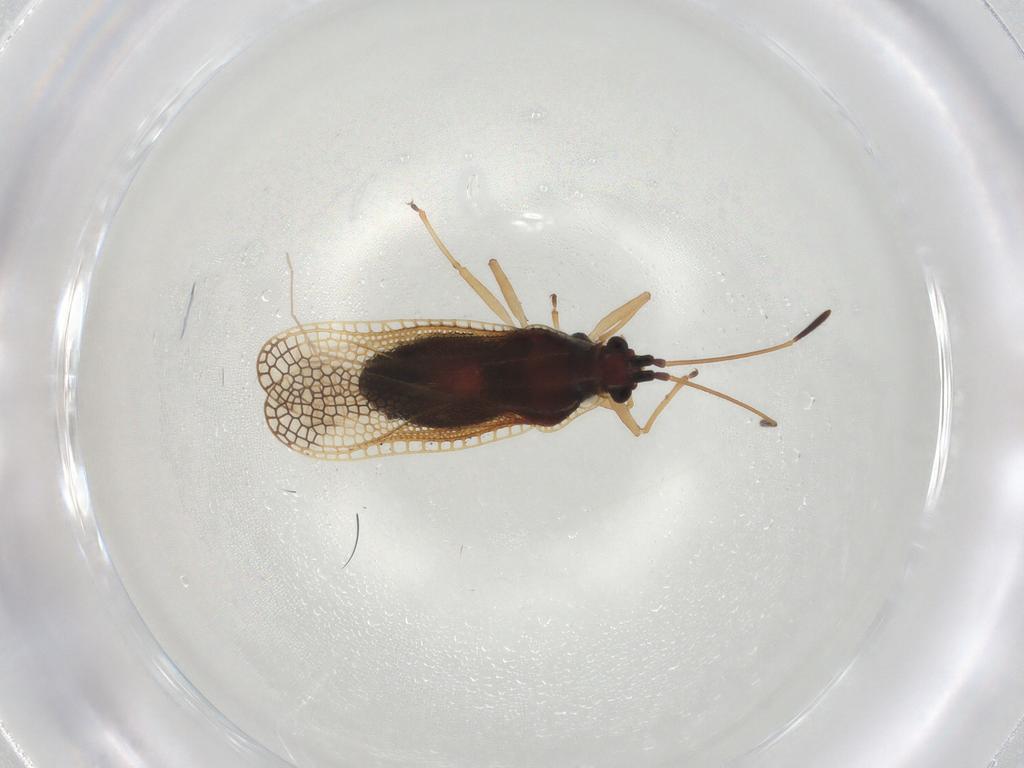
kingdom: Animalia
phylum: Arthropoda
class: Insecta
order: Hemiptera
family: Tingidae
